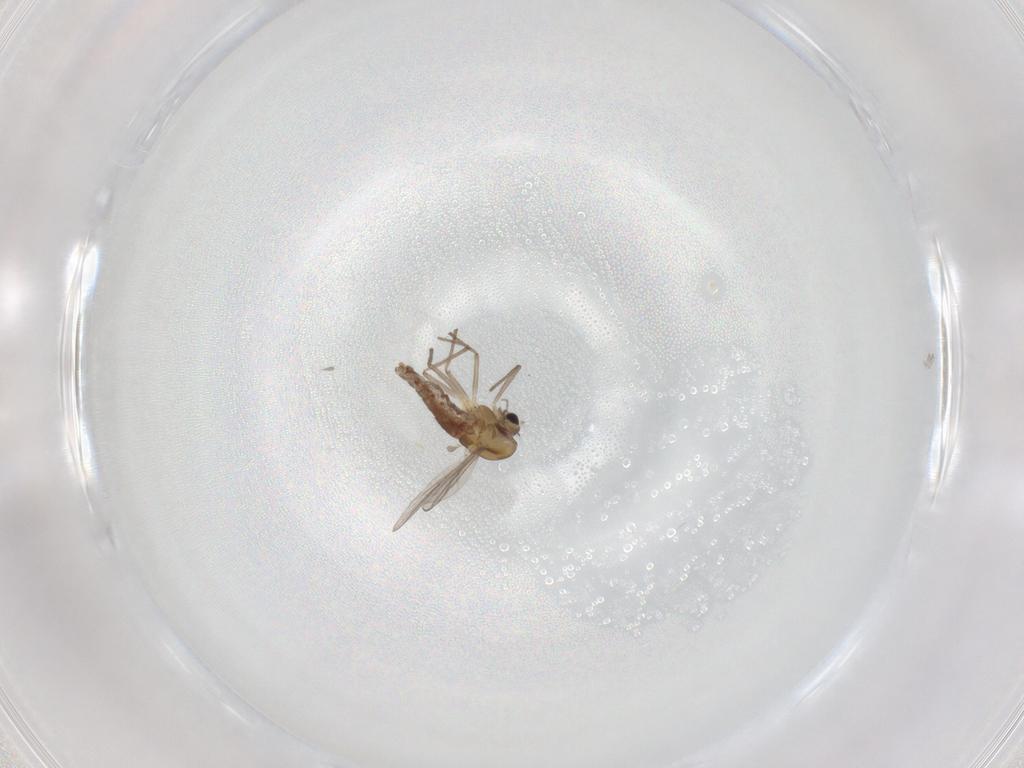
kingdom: Animalia
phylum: Arthropoda
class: Insecta
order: Diptera
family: Chironomidae
